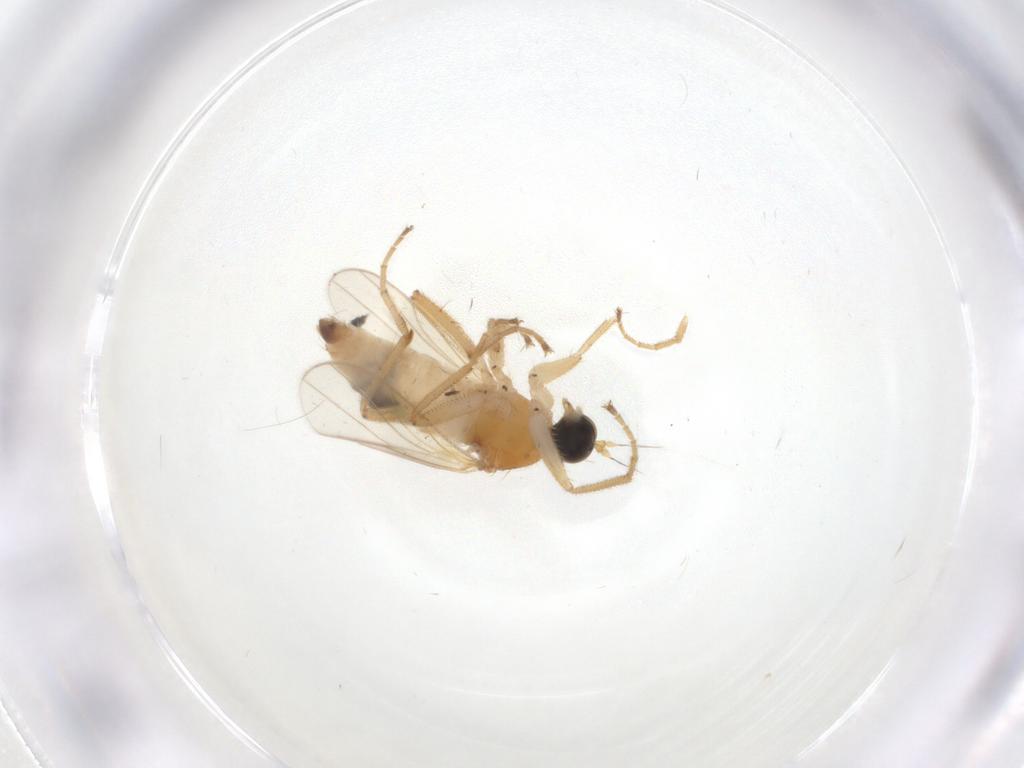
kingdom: Animalia
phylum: Arthropoda
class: Insecta
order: Diptera
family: Hybotidae
